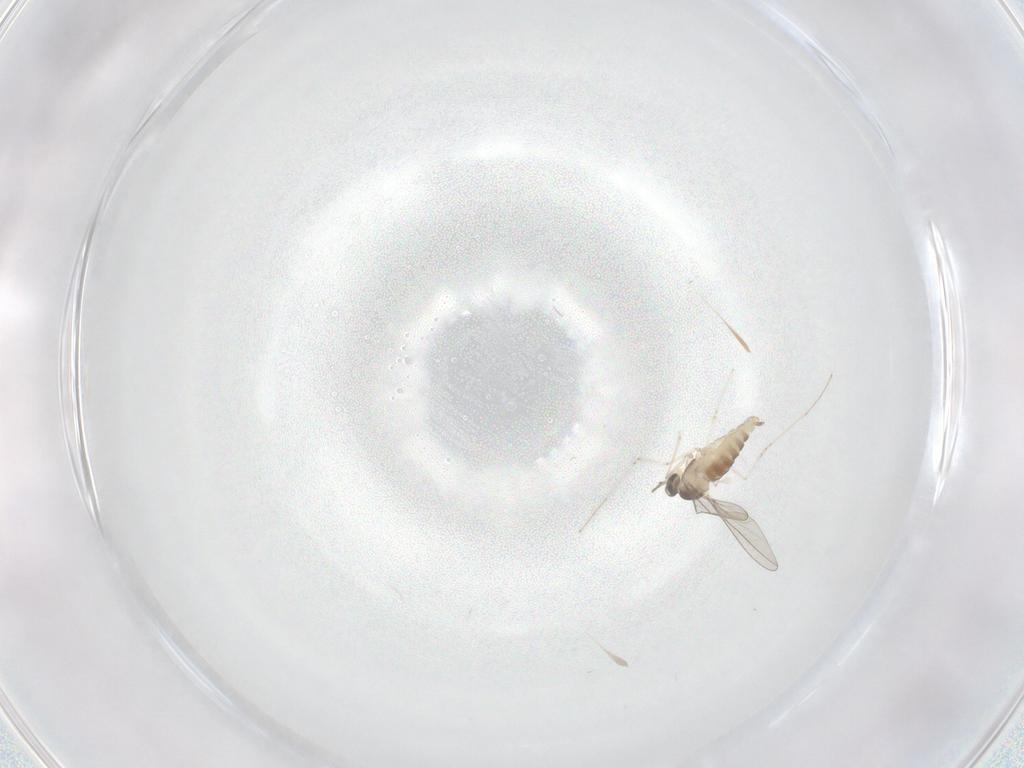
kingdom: Animalia
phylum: Arthropoda
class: Insecta
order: Diptera
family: Cecidomyiidae
